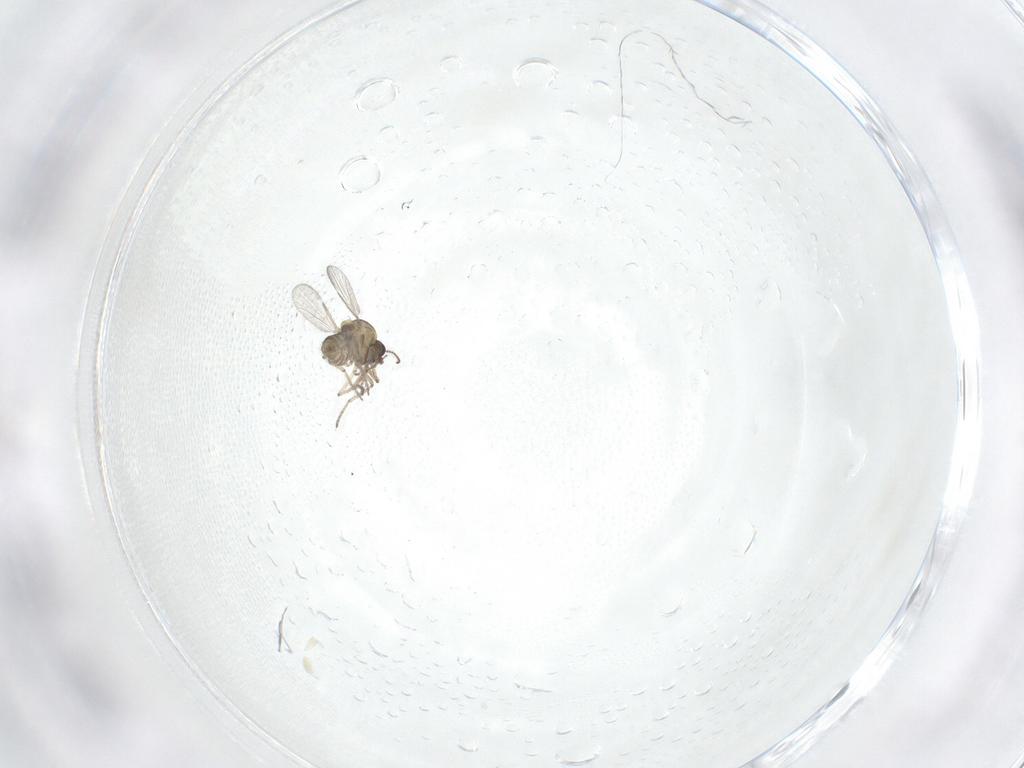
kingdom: Animalia
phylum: Arthropoda
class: Insecta
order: Diptera
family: Ceratopogonidae
